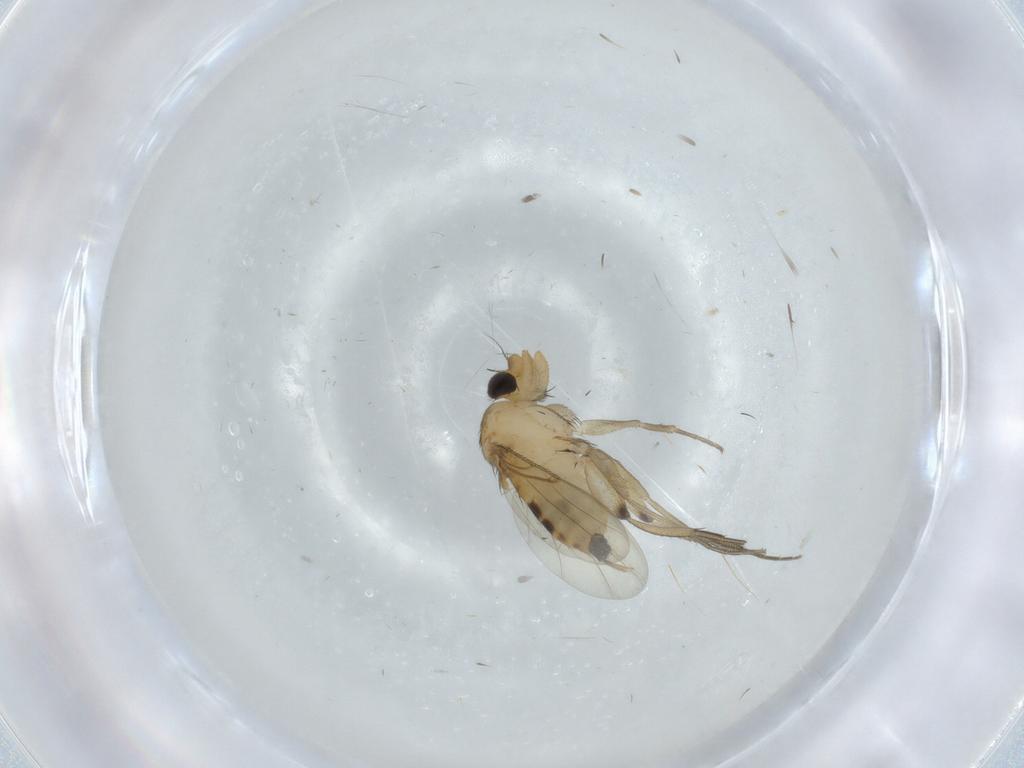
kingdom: Animalia
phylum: Arthropoda
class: Insecta
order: Diptera
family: Phoridae
